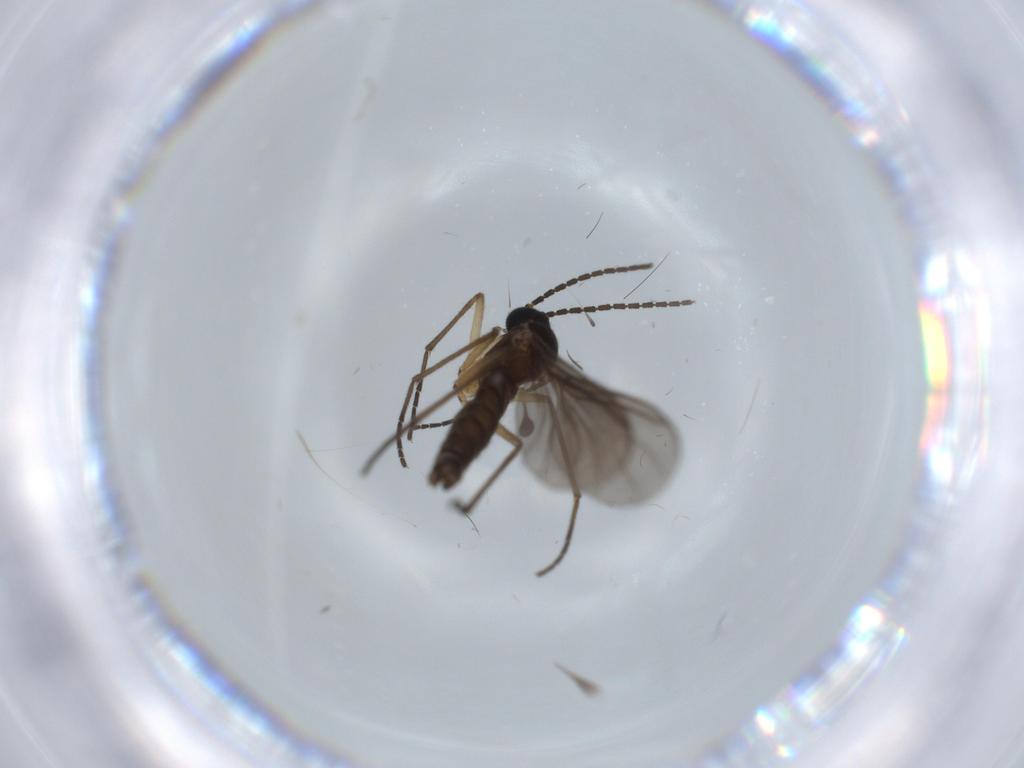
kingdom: Animalia
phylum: Arthropoda
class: Insecta
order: Diptera
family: Sciaridae
